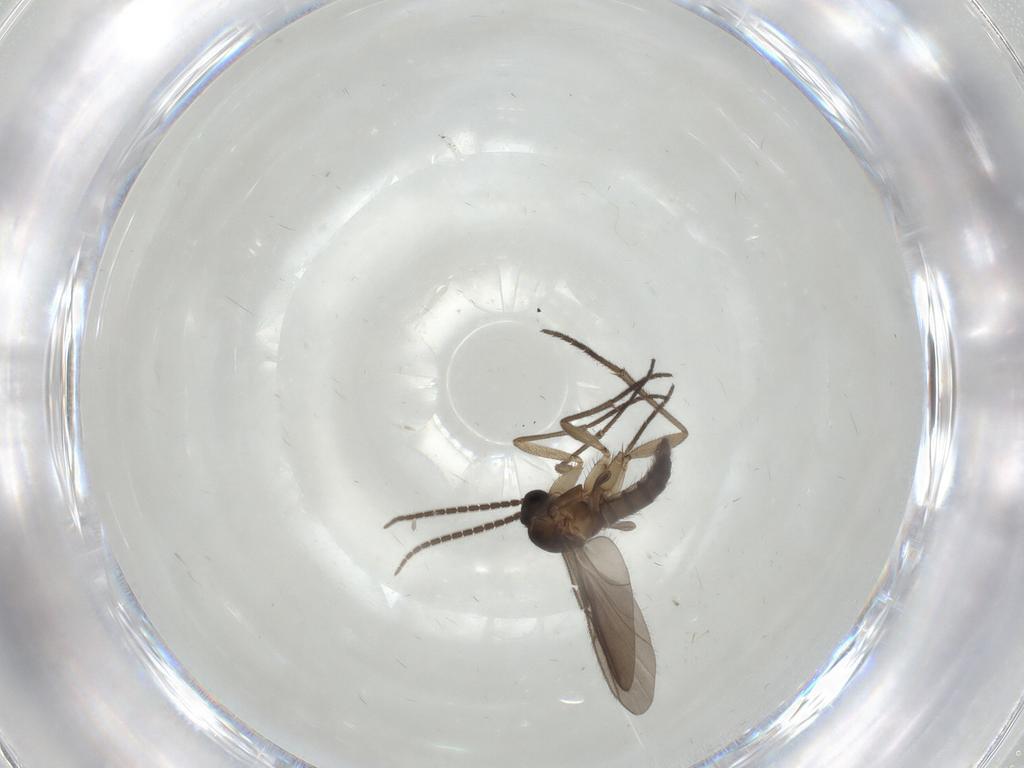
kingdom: Animalia
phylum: Arthropoda
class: Insecta
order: Diptera
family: Sciaridae
